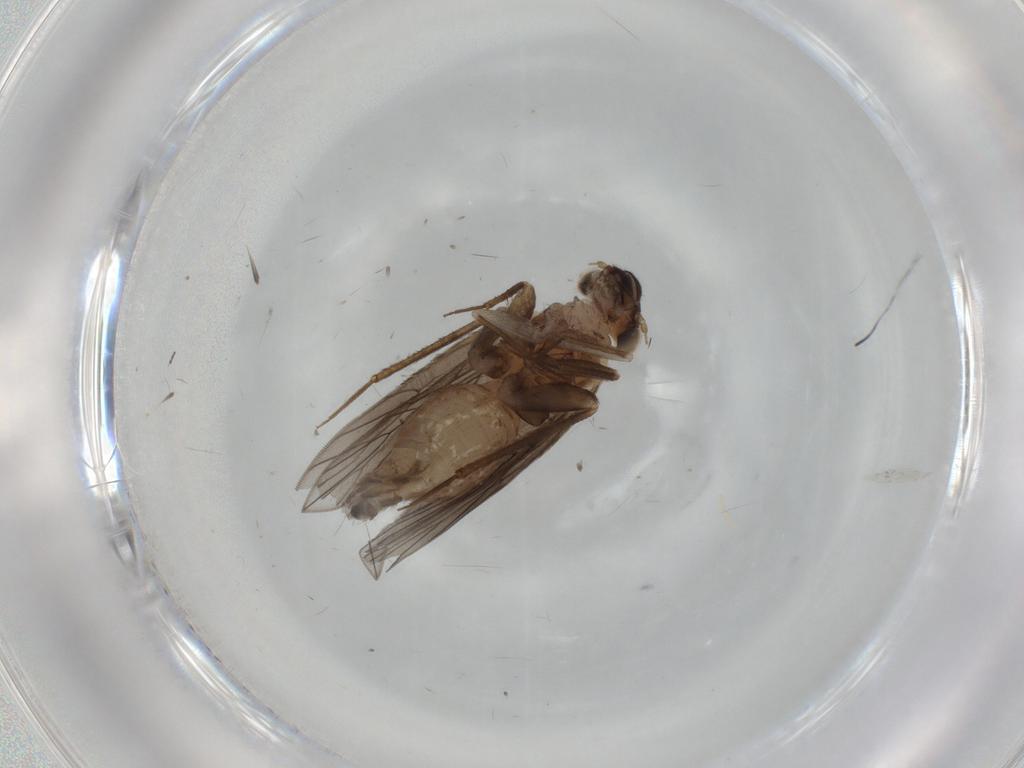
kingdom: Animalia
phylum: Arthropoda
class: Insecta
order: Psocodea
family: Lepidopsocidae
